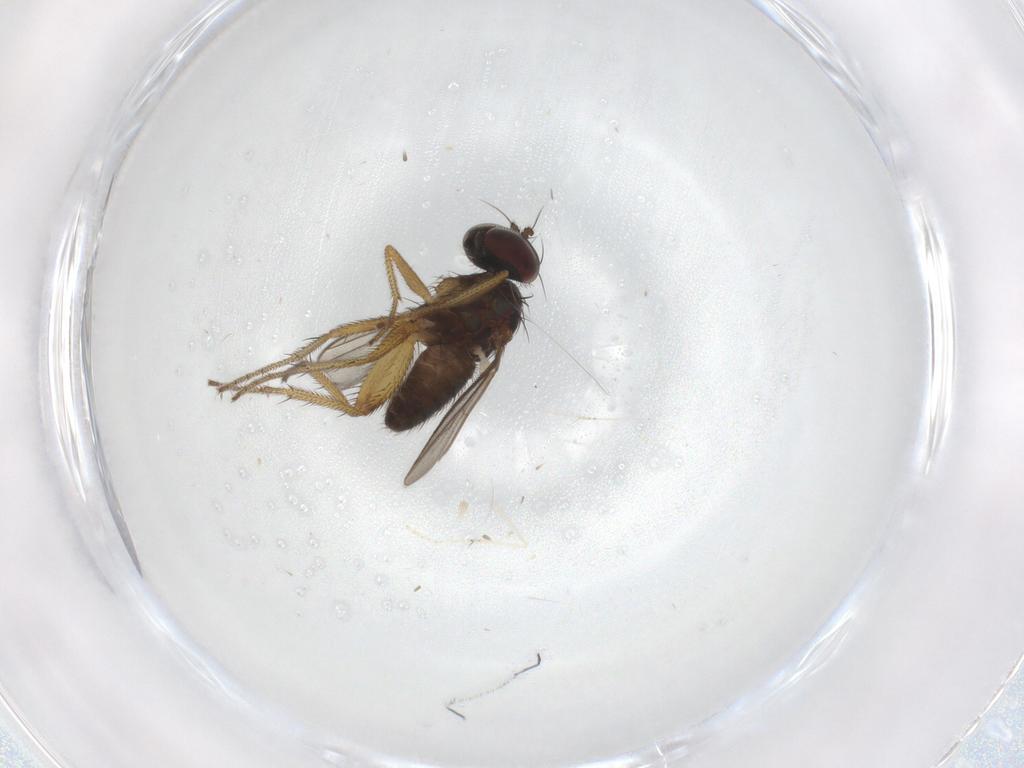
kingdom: Animalia
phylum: Arthropoda
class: Insecta
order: Diptera
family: Cecidomyiidae
